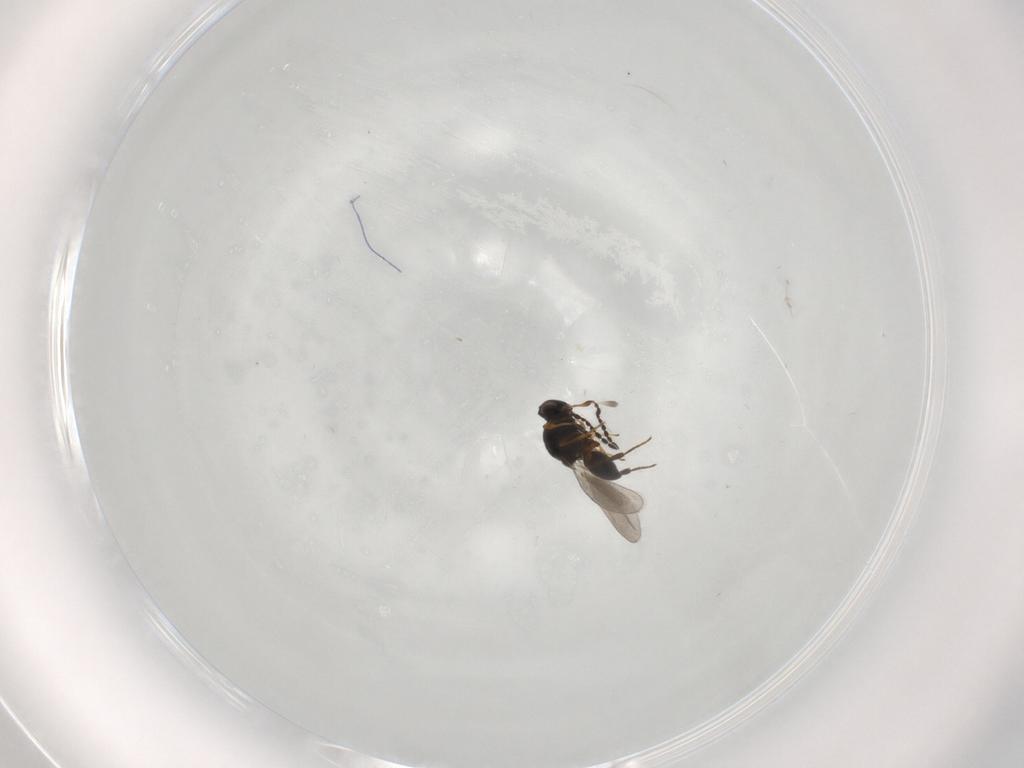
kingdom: Animalia
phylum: Arthropoda
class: Insecta
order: Hymenoptera
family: Platygastridae
